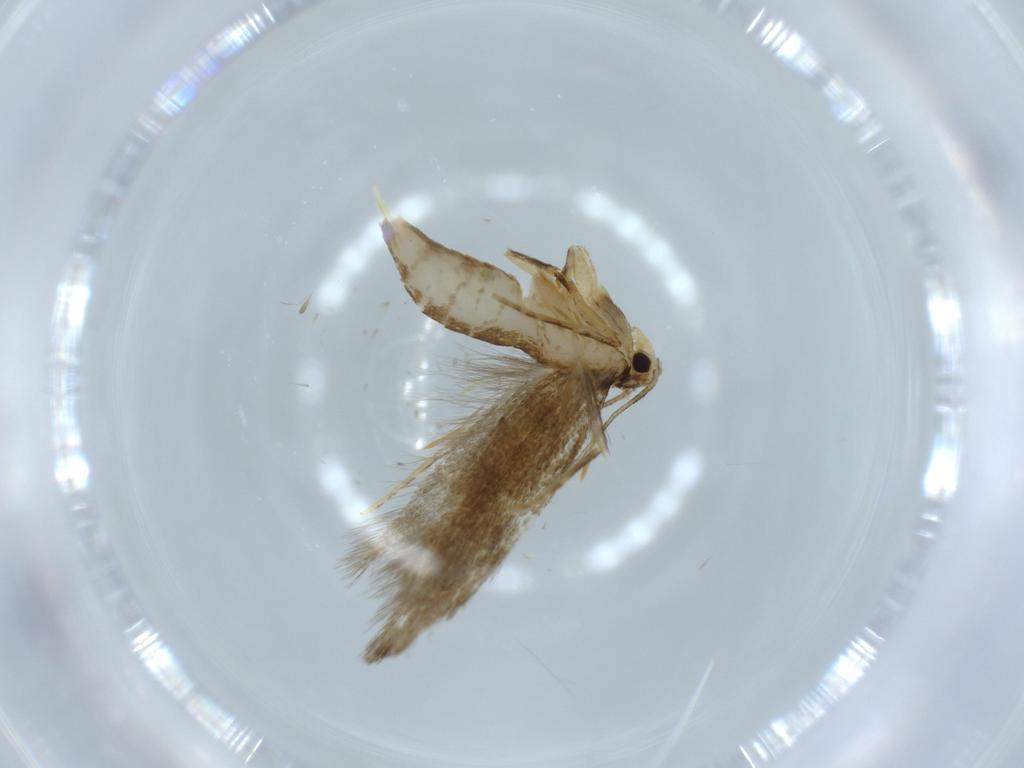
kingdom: Animalia
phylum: Arthropoda
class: Insecta
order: Lepidoptera
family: Tineidae
